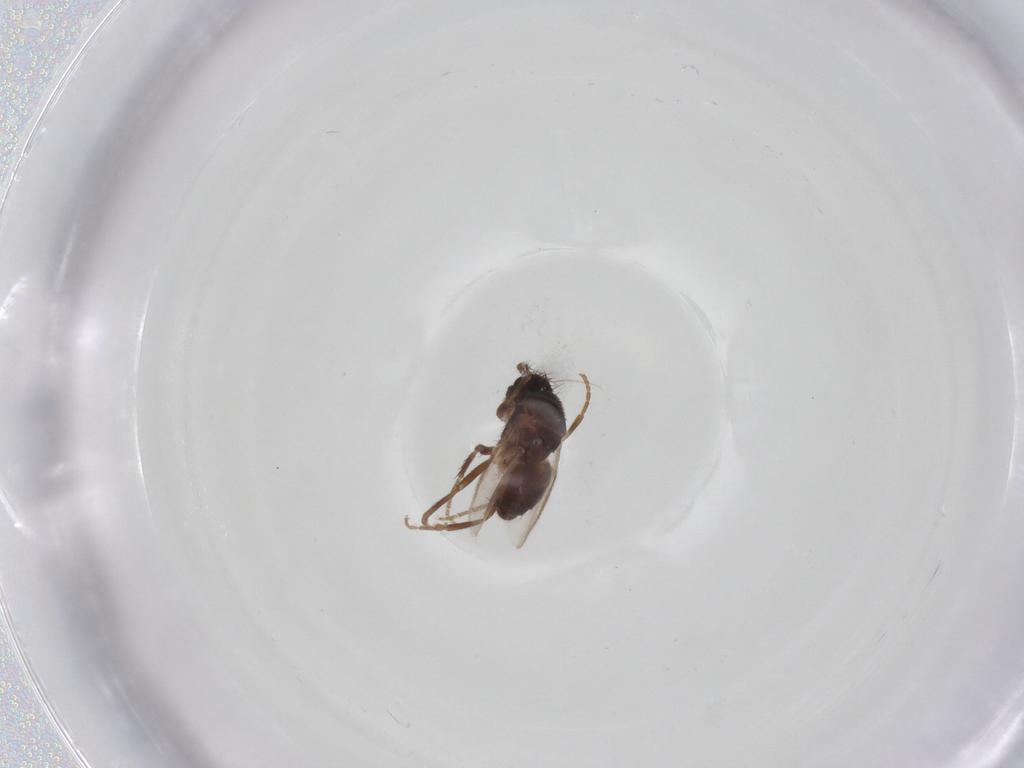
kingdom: Animalia
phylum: Arthropoda
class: Insecta
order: Diptera
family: Sphaeroceridae
